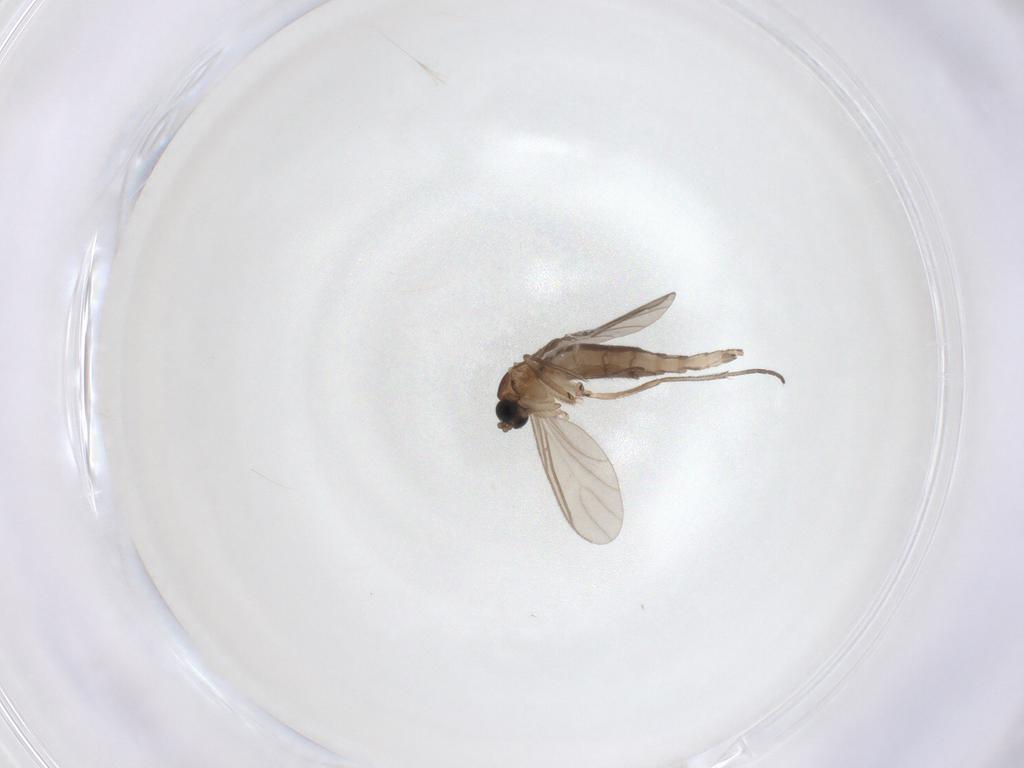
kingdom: Animalia
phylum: Arthropoda
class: Insecta
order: Diptera
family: Sciaridae
